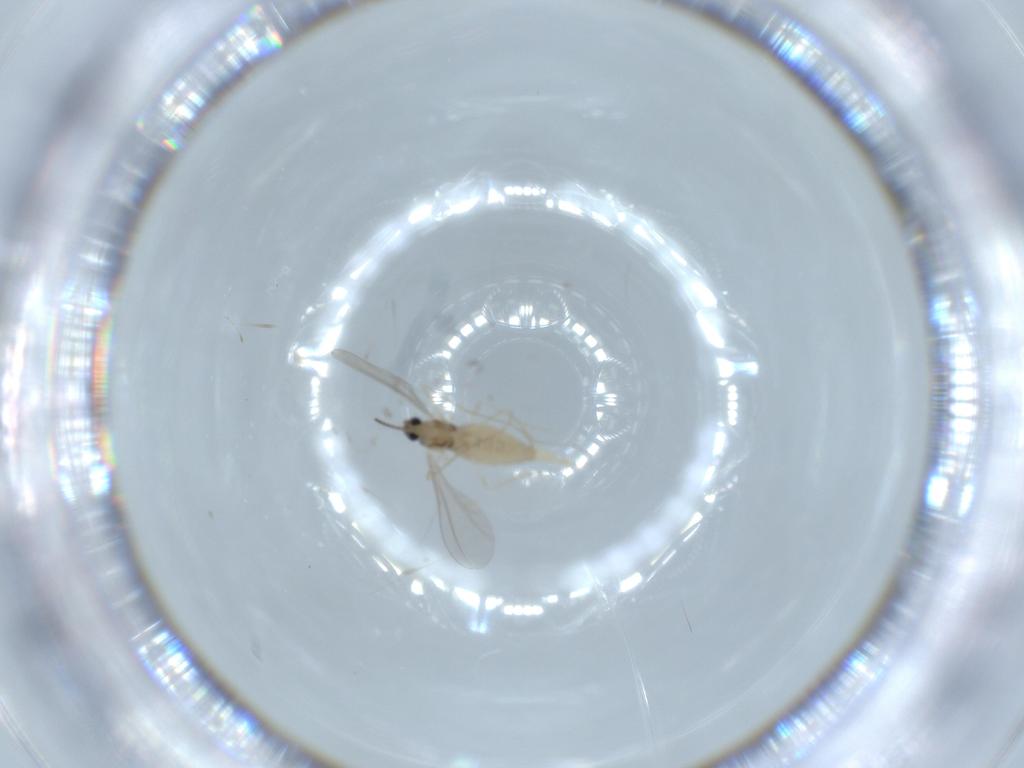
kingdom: Animalia
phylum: Arthropoda
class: Insecta
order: Diptera
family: Cecidomyiidae
